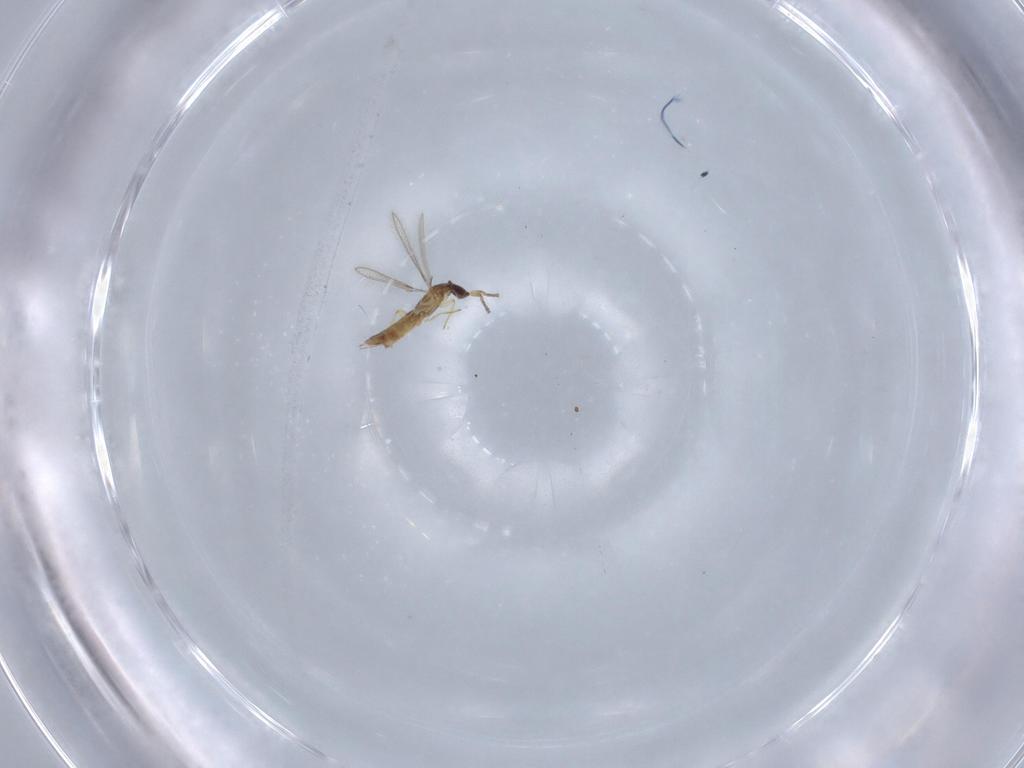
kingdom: Animalia
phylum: Arthropoda
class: Insecta
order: Hymenoptera
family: Mymaridae
